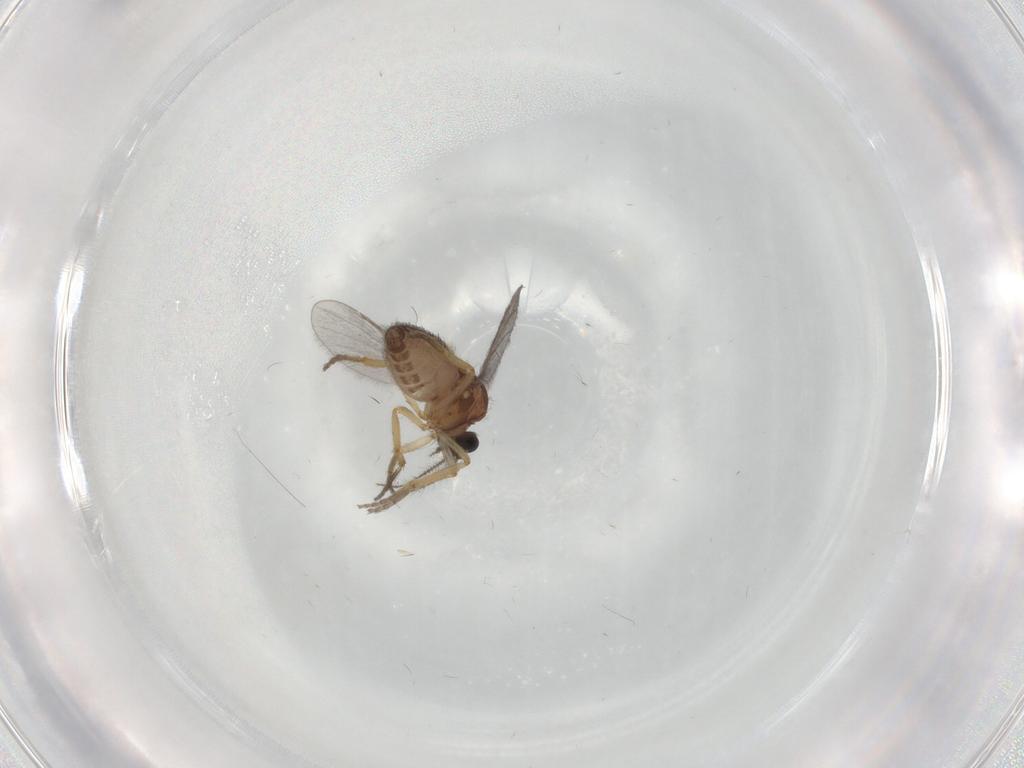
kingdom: Animalia
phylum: Arthropoda
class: Insecta
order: Diptera
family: Ceratopogonidae
